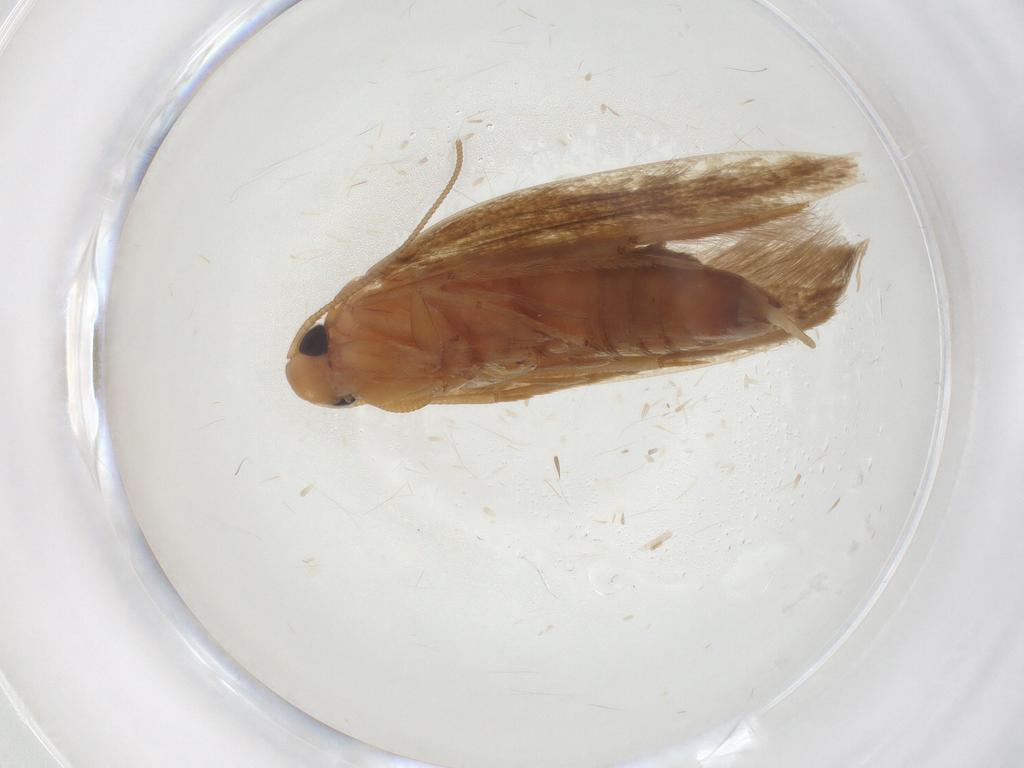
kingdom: Animalia
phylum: Arthropoda
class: Insecta
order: Lepidoptera
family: Tineidae
